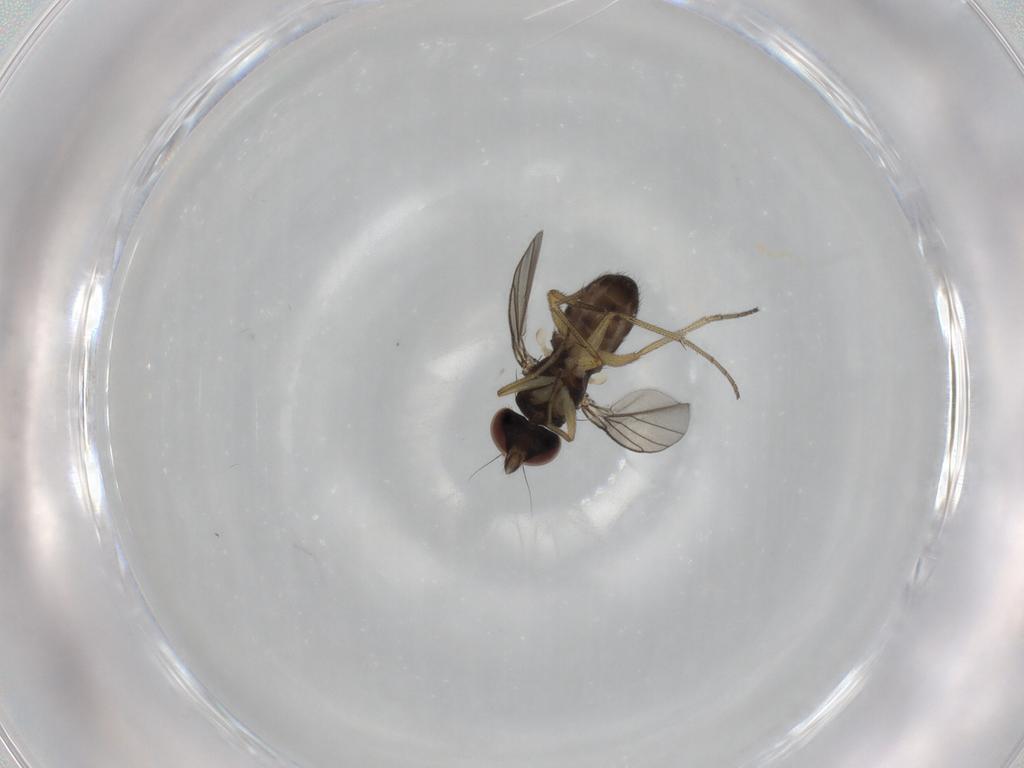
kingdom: Animalia
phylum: Arthropoda
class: Insecta
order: Diptera
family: Dolichopodidae
